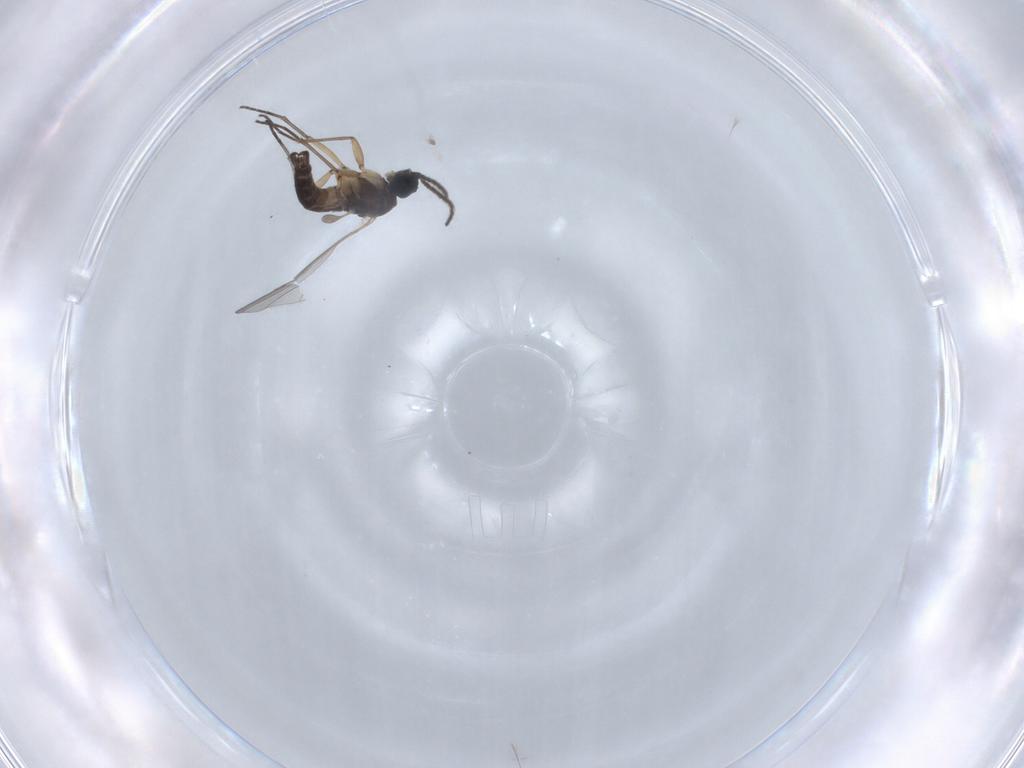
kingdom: Animalia
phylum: Arthropoda
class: Insecta
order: Diptera
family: Sciaridae
